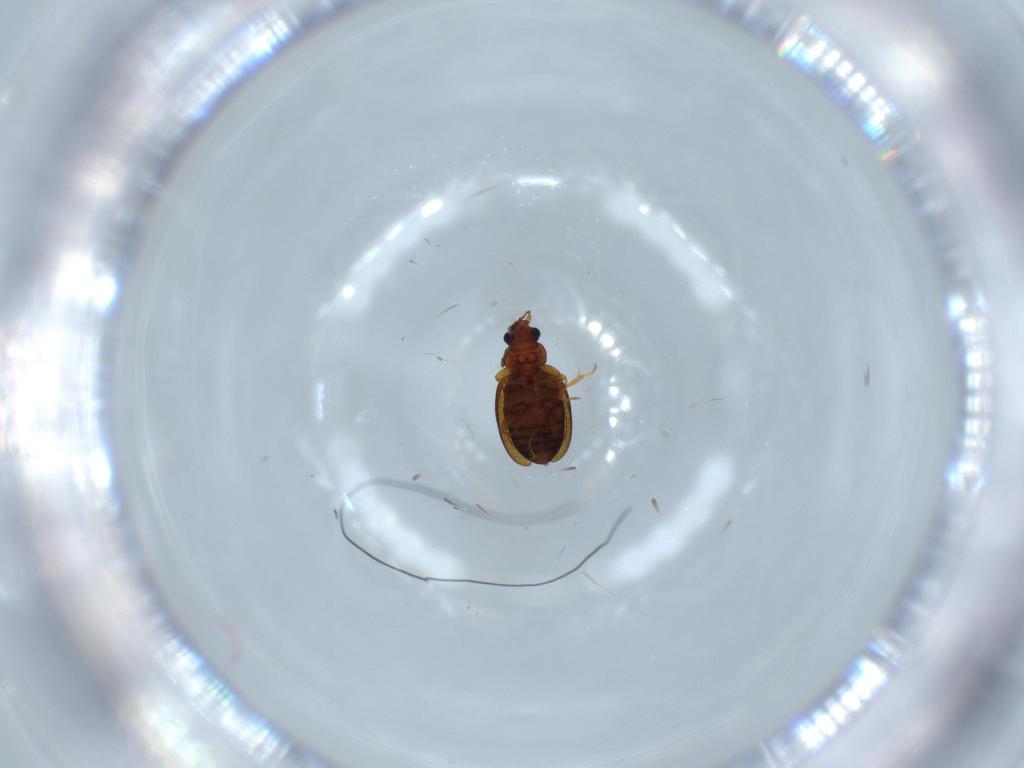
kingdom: Animalia
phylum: Arthropoda
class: Insecta
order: Coleoptera
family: Latridiidae
